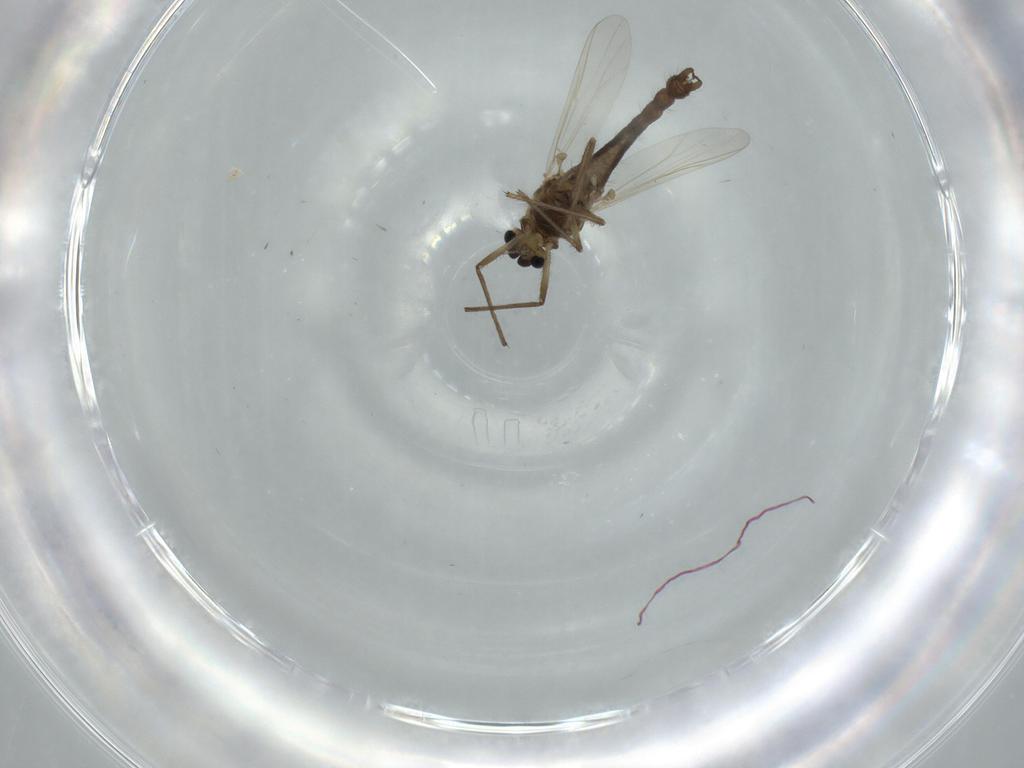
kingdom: Animalia
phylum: Arthropoda
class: Insecta
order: Diptera
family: Chironomidae
